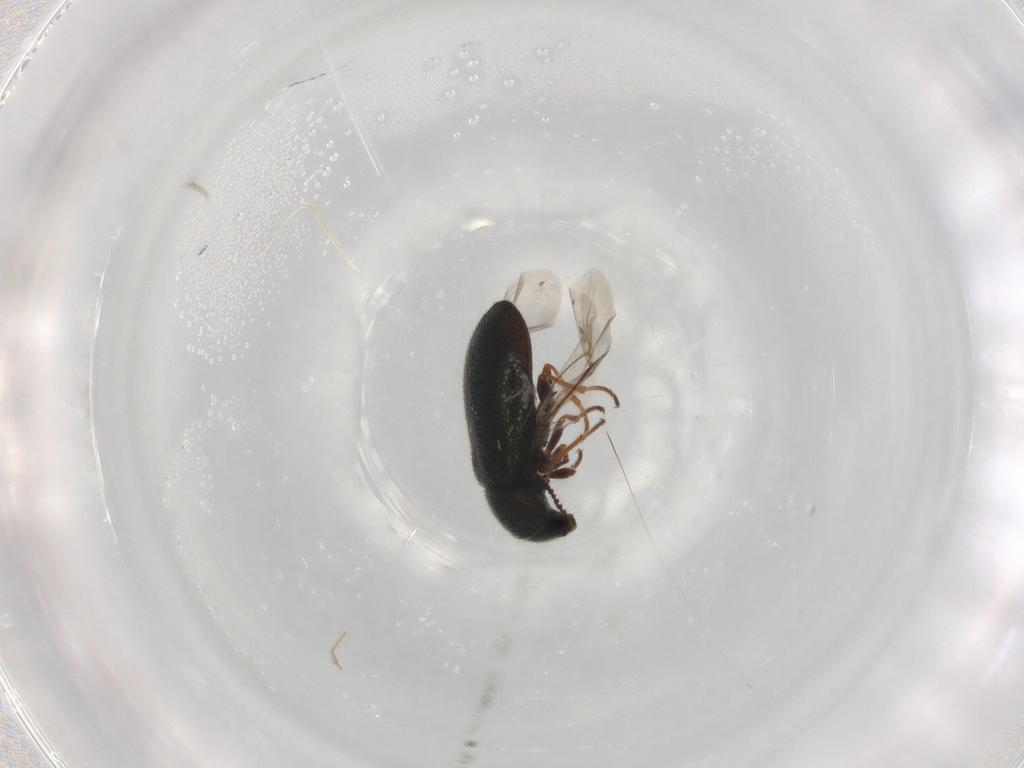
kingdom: Animalia
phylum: Arthropoda
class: Insecta
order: Coleoptera
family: Melyridae
